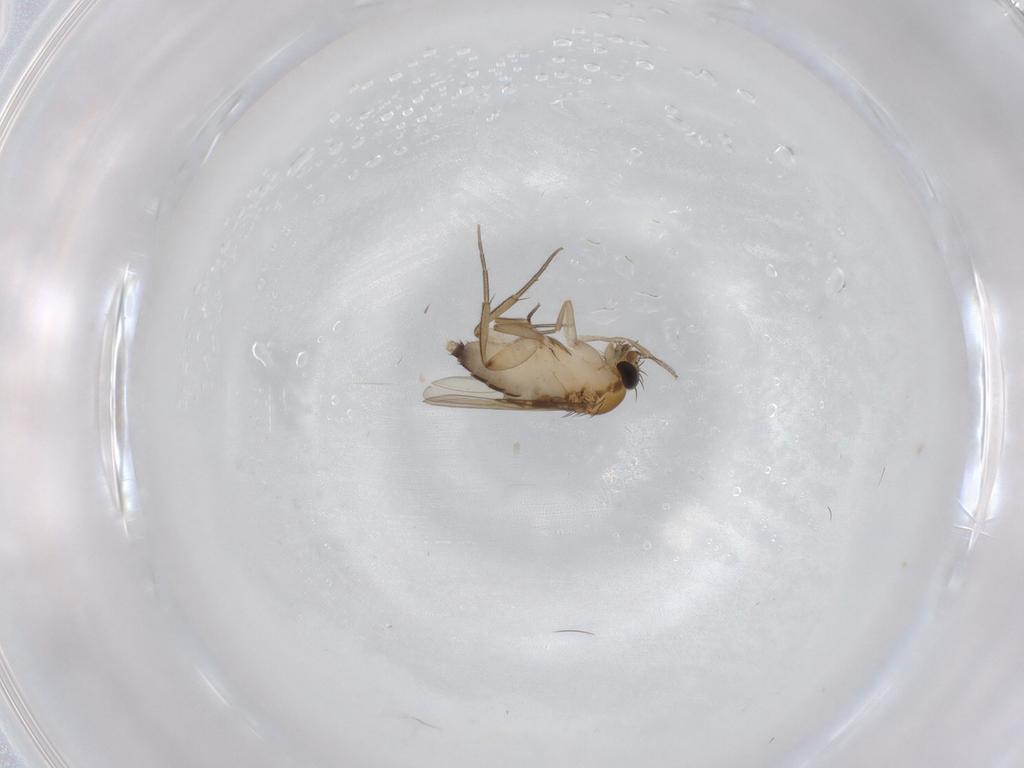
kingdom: Animalia
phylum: Arthropoda
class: Insecta
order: Diptera
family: Phoridae
